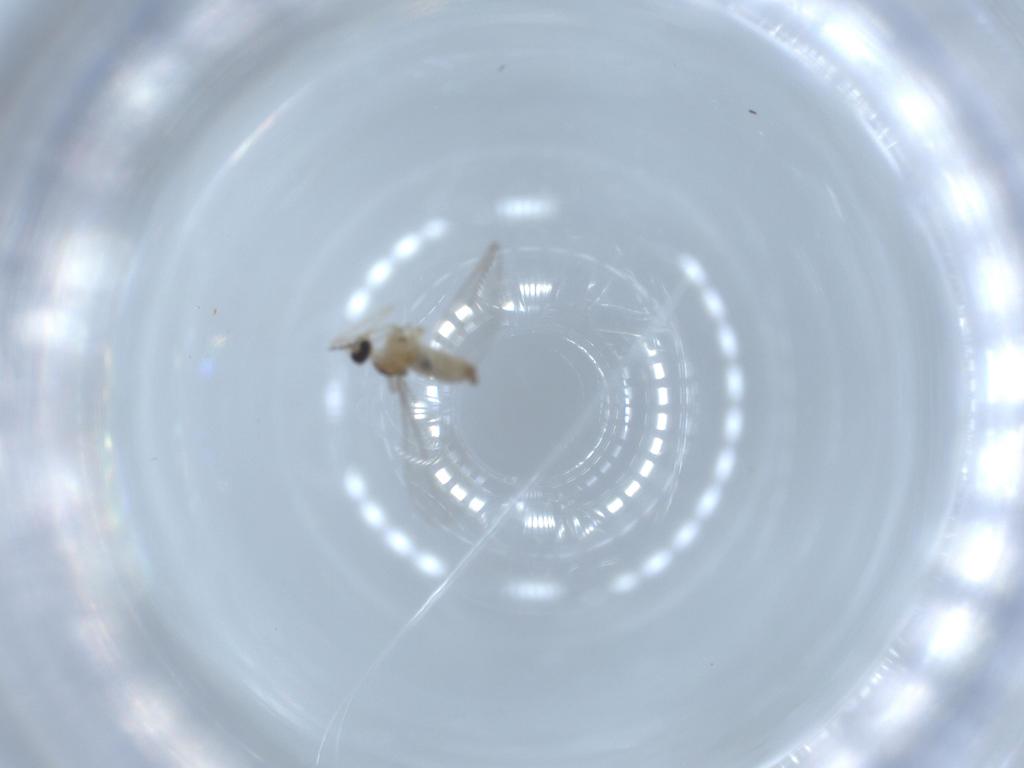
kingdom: Animalia
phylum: Arthropoda
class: Insecta
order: Diptera
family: Cecidomyiidae
